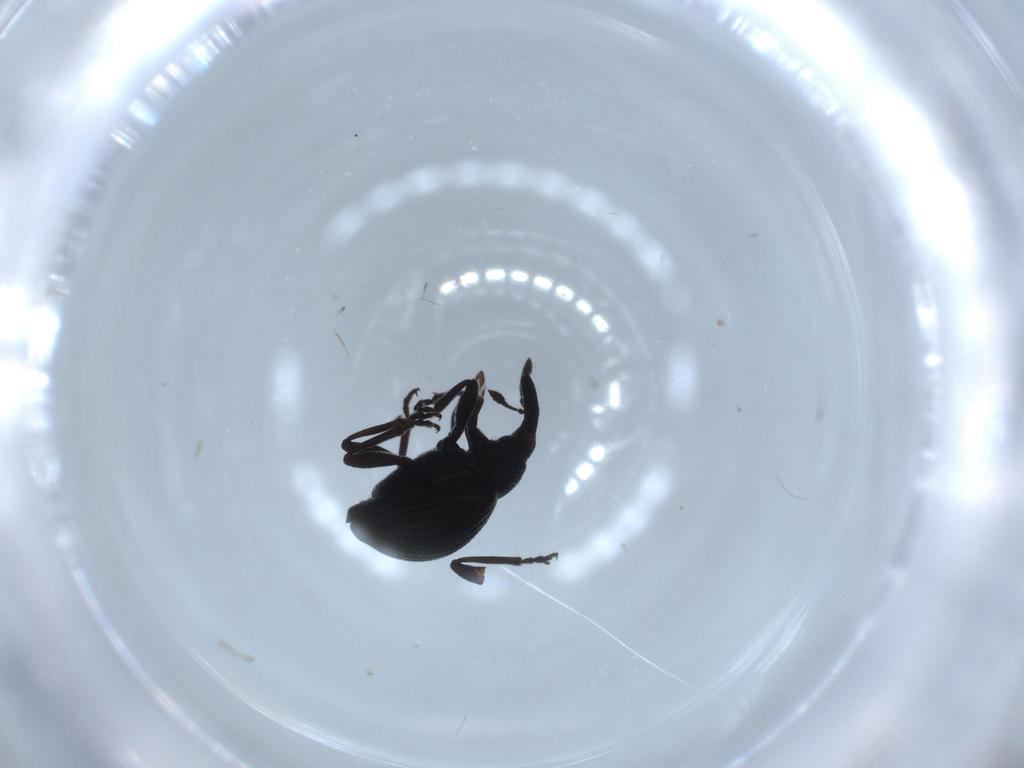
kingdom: Animalia
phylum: Arthropoda
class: Insecta
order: Coleoptera
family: Brentidae
